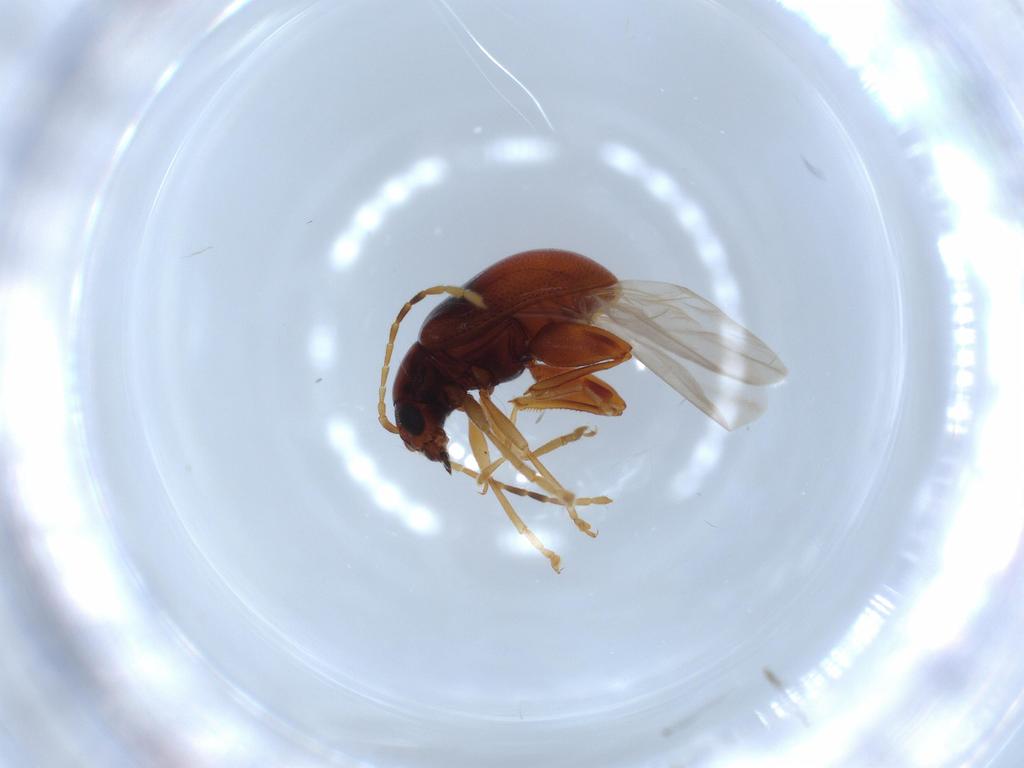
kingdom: Animalia
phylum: Arthropoda
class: Insecta
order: Coleoptera
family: Chrysomelidae
